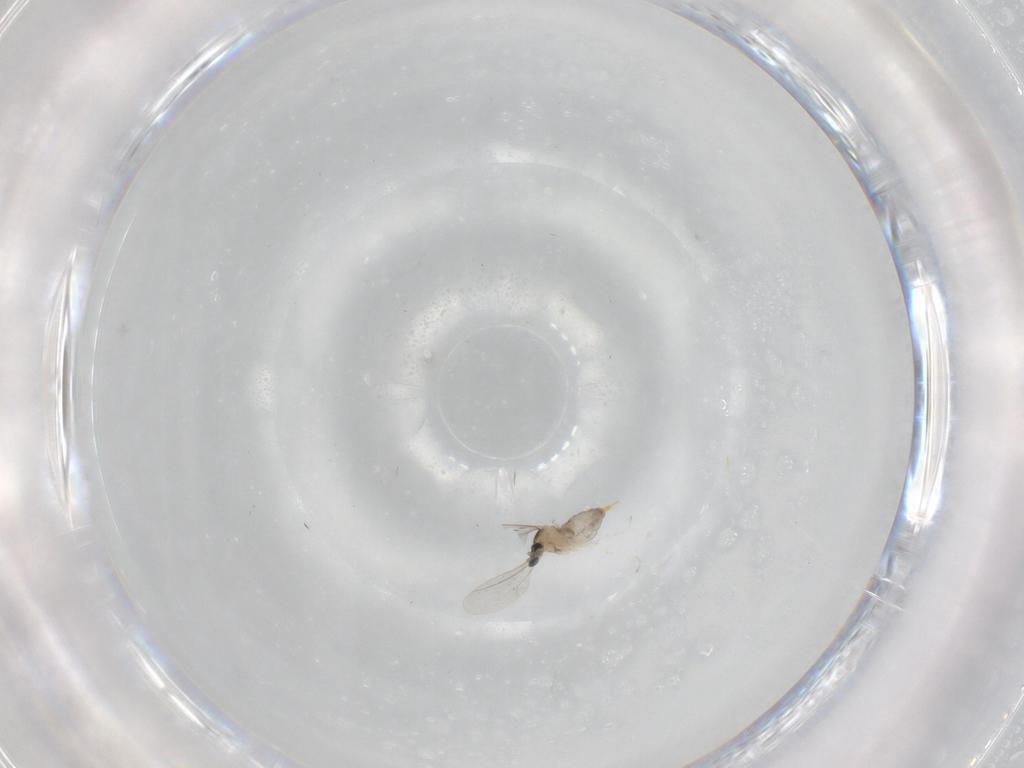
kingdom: Animalia
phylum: Arthropoda
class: Insecta
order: Diptera
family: Cecidomyiidae
